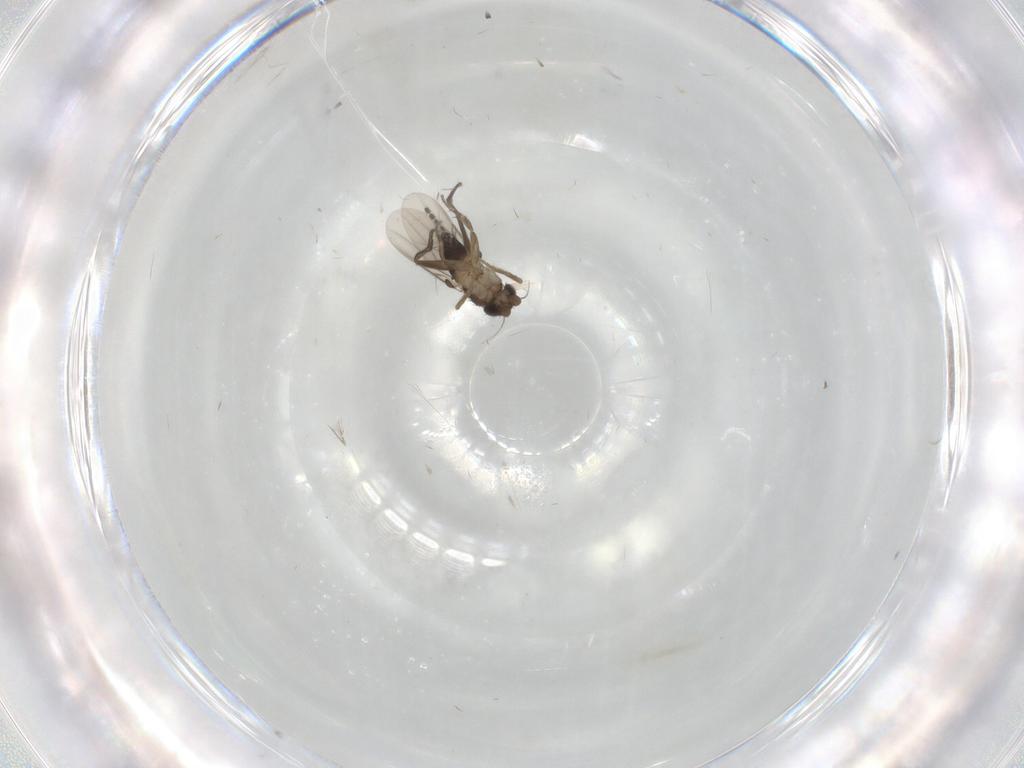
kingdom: Animalia
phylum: Arthropoda
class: Insecta
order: Diptera
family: Phoridae
